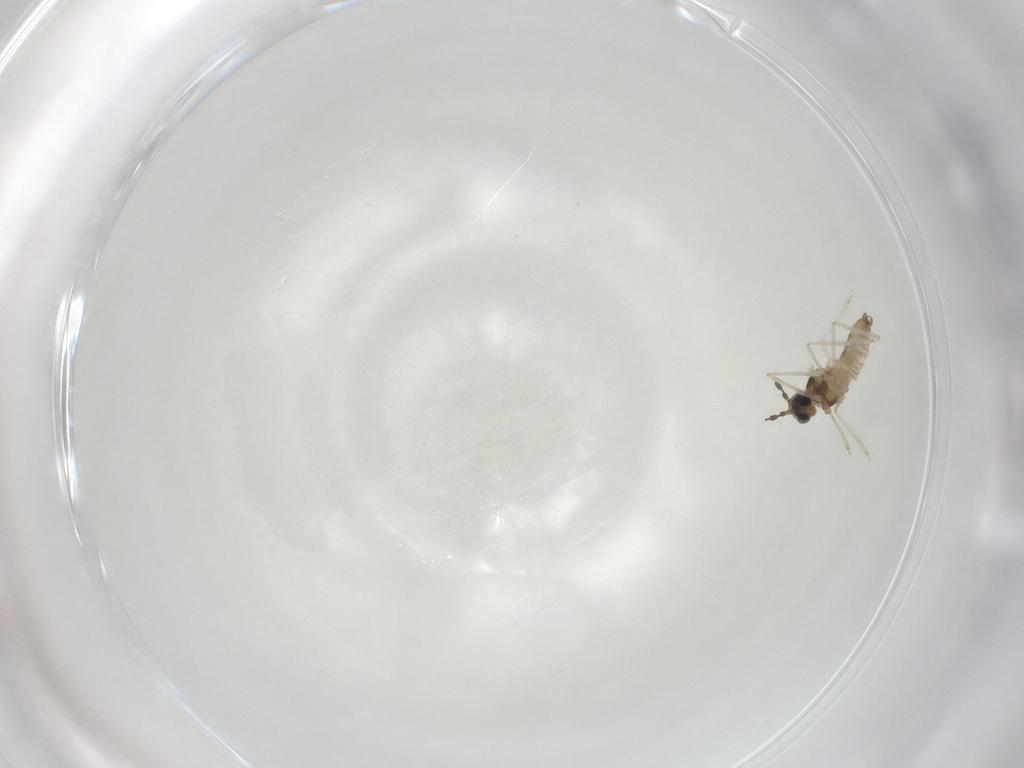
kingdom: Animalia
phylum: Arthropoda
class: Insecta
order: Diptera
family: Cecidomyiidae
